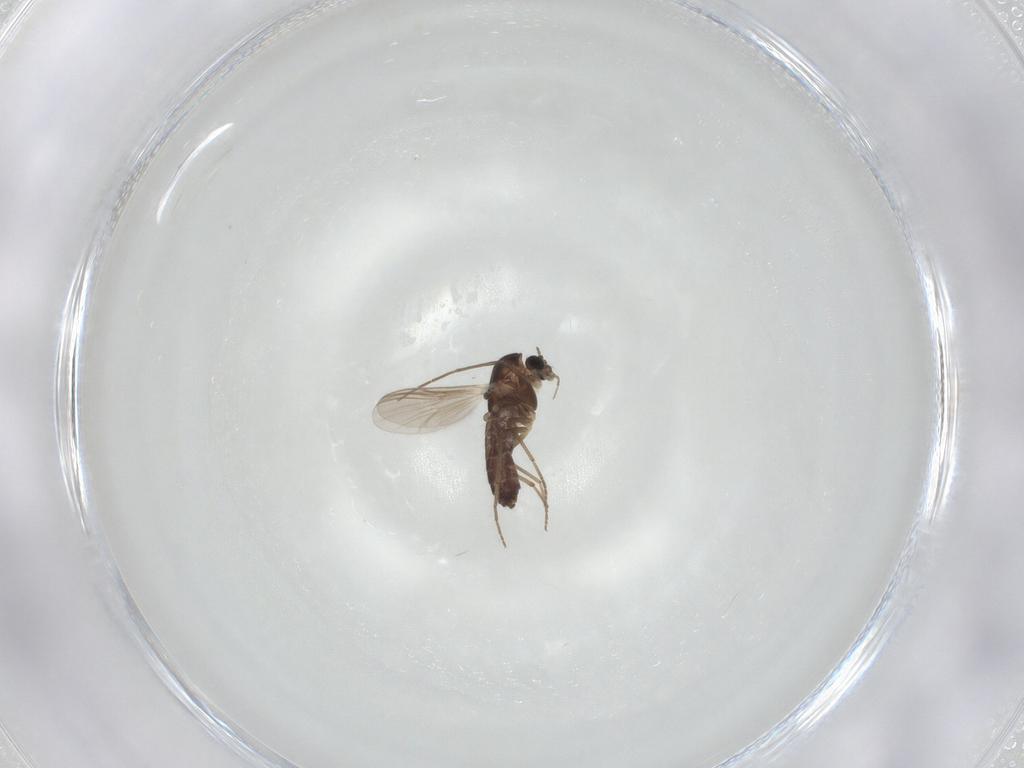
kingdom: Animalia
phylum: Arthropoda
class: Insecta
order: Diptera
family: Chironomidae
